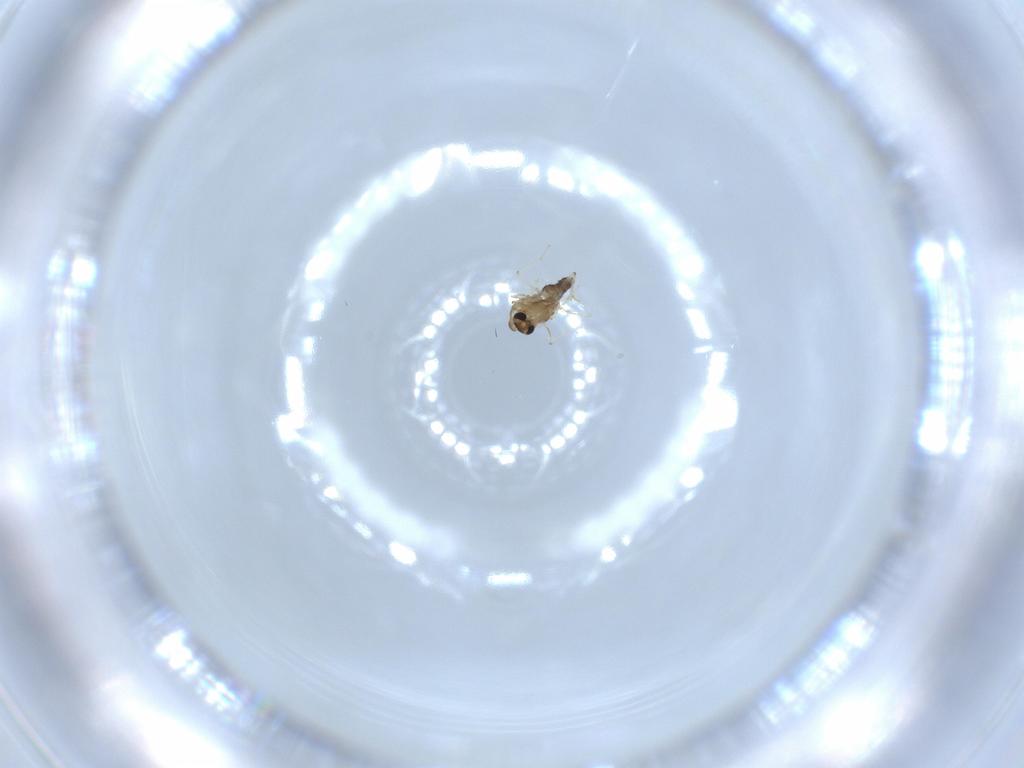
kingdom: Animalia
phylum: Arthropoda
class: Insecta
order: Diptera
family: Chironomidae
